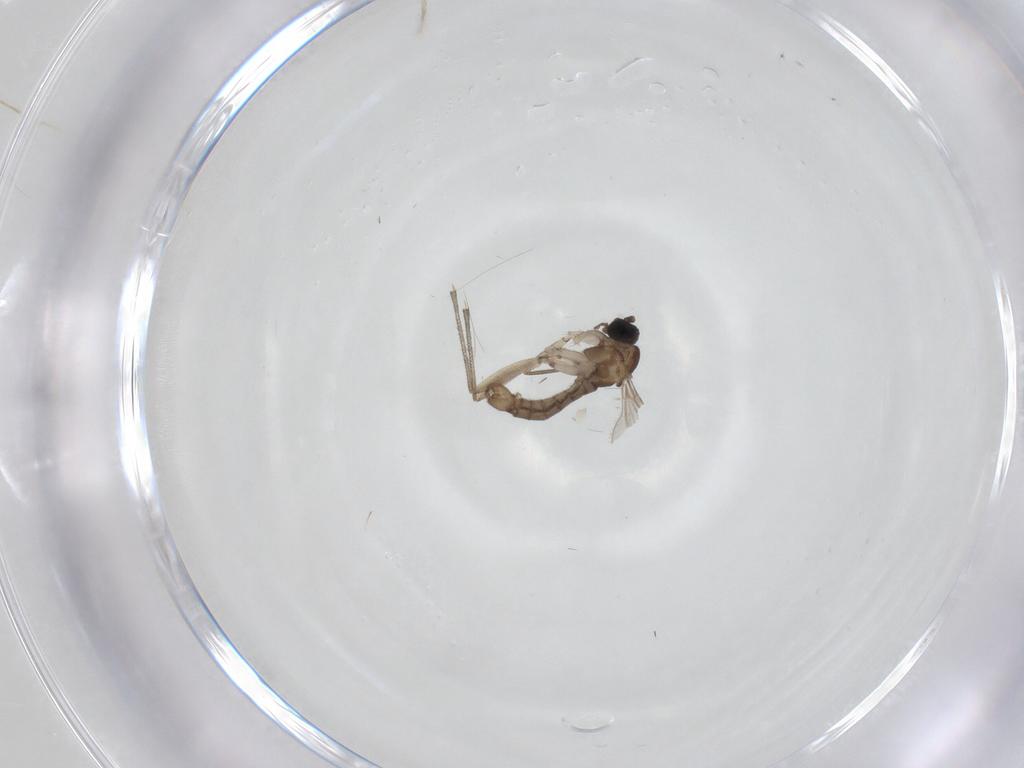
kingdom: Animalia
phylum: Arthropoda
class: Insecta
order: Diptera
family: Sciaridae
